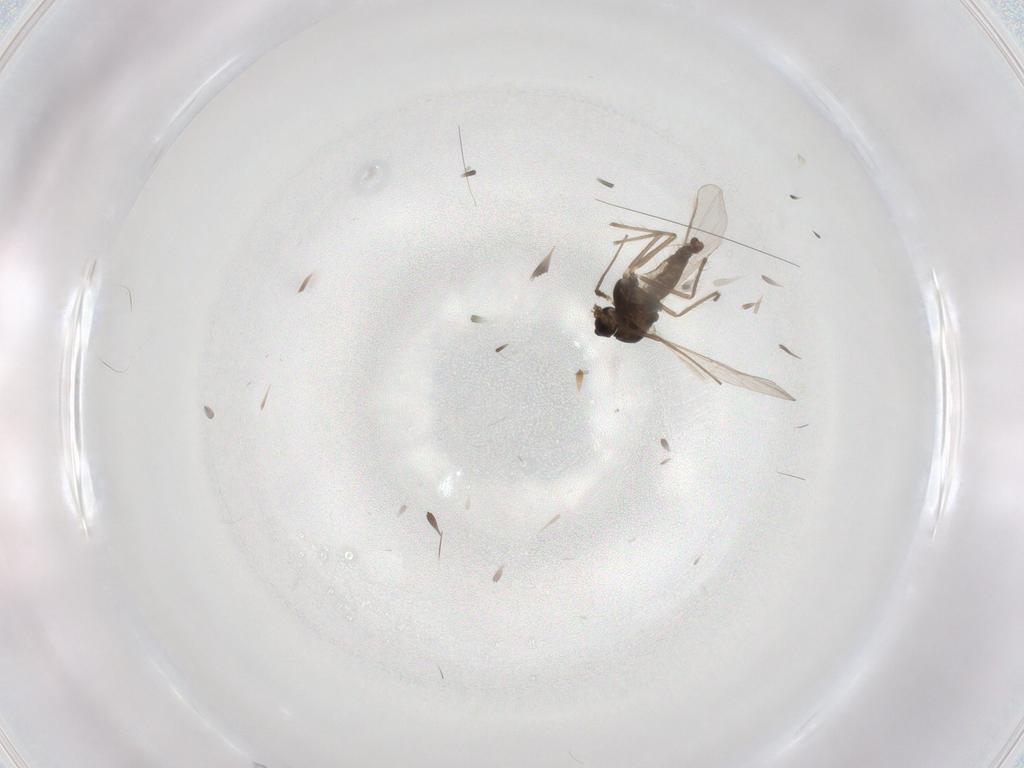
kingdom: Animalia
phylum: Arthropoda
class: Insecta
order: Diptera
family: Chironomidae
